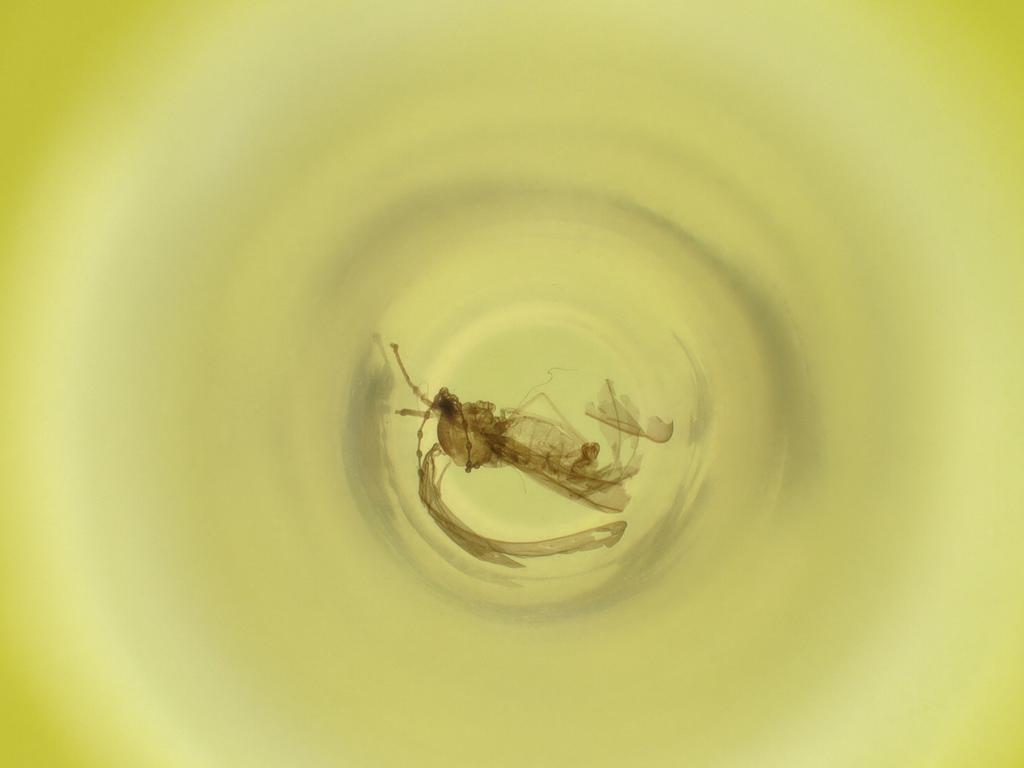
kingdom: Animalia
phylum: Arthropoda
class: Insecta
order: Diptera
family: Cecidomyiidae
